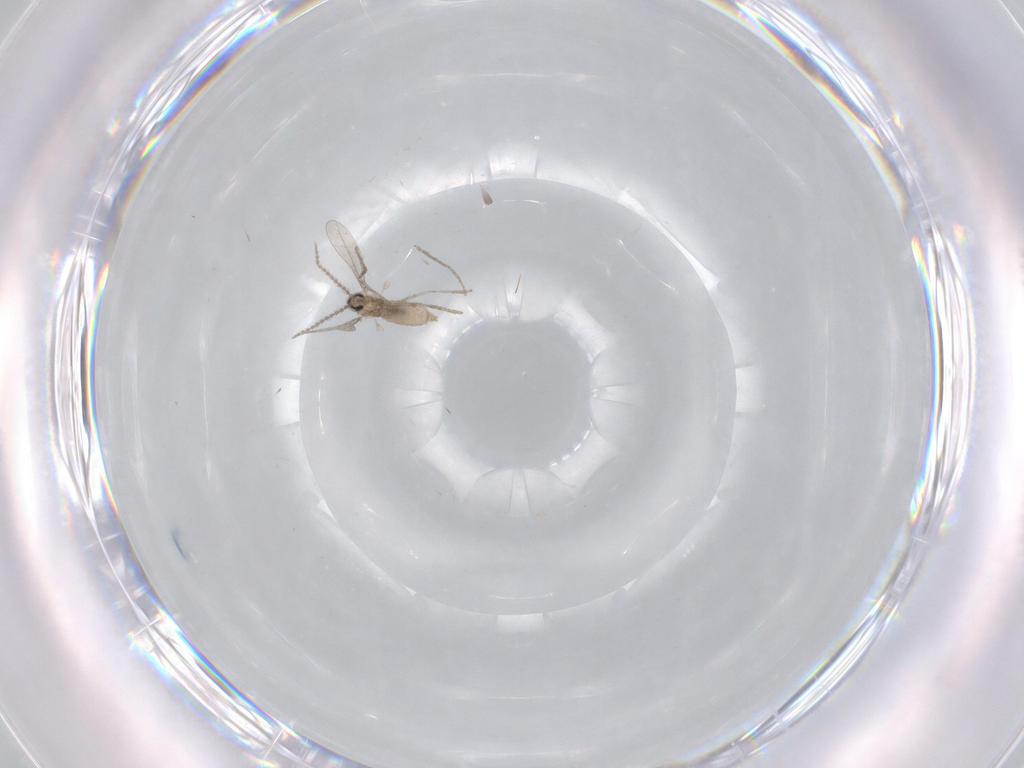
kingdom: Animalia
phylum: Arthropoda
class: Insecta
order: Diptera
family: Cecidomyiidae
